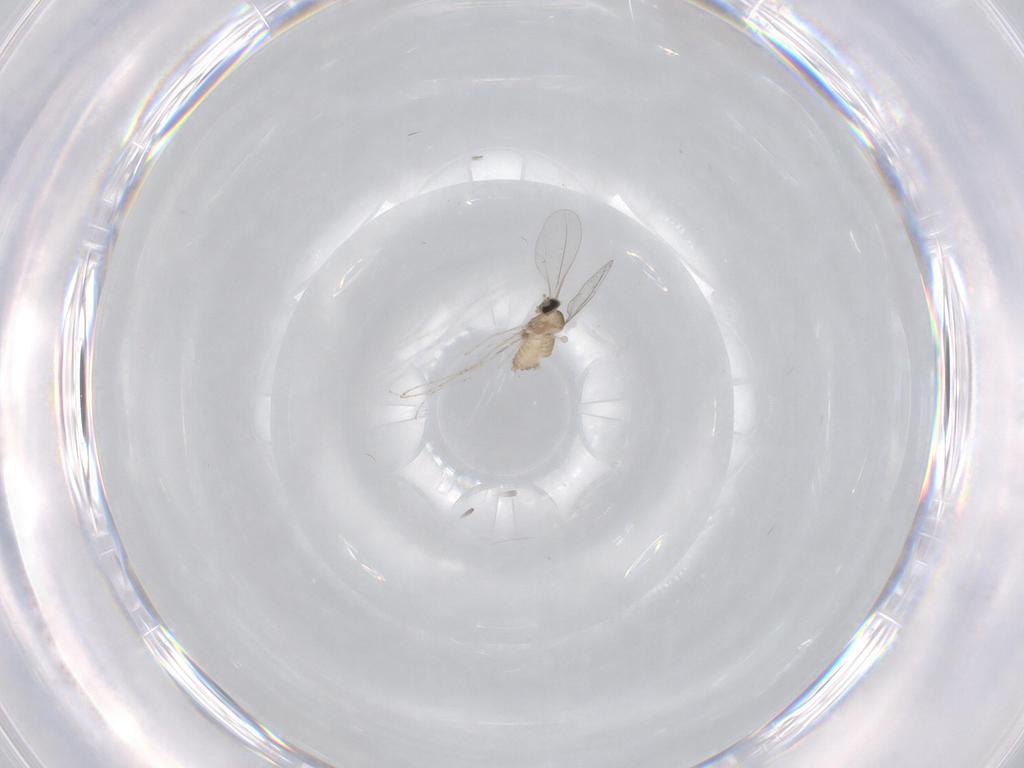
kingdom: Animalia
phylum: Arthropoda
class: Insecta
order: Diptera
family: Cecidomyiidae
